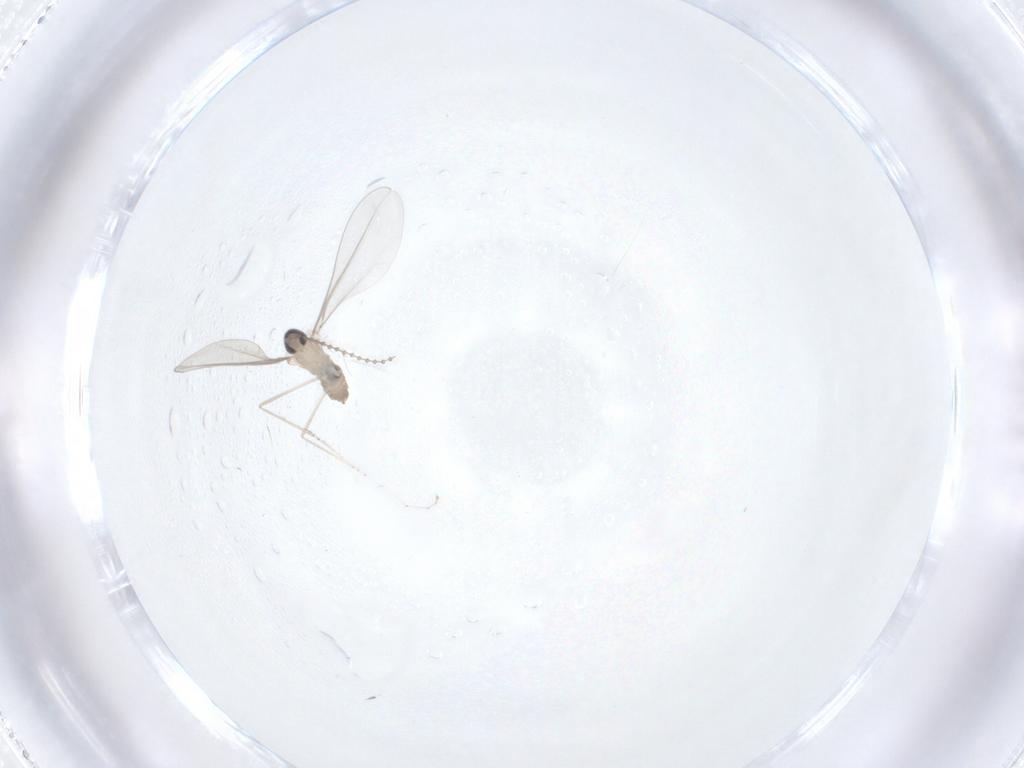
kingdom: Animalia
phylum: Arthropoda
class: Insecta
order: Diptera
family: Cecidomyiidae
